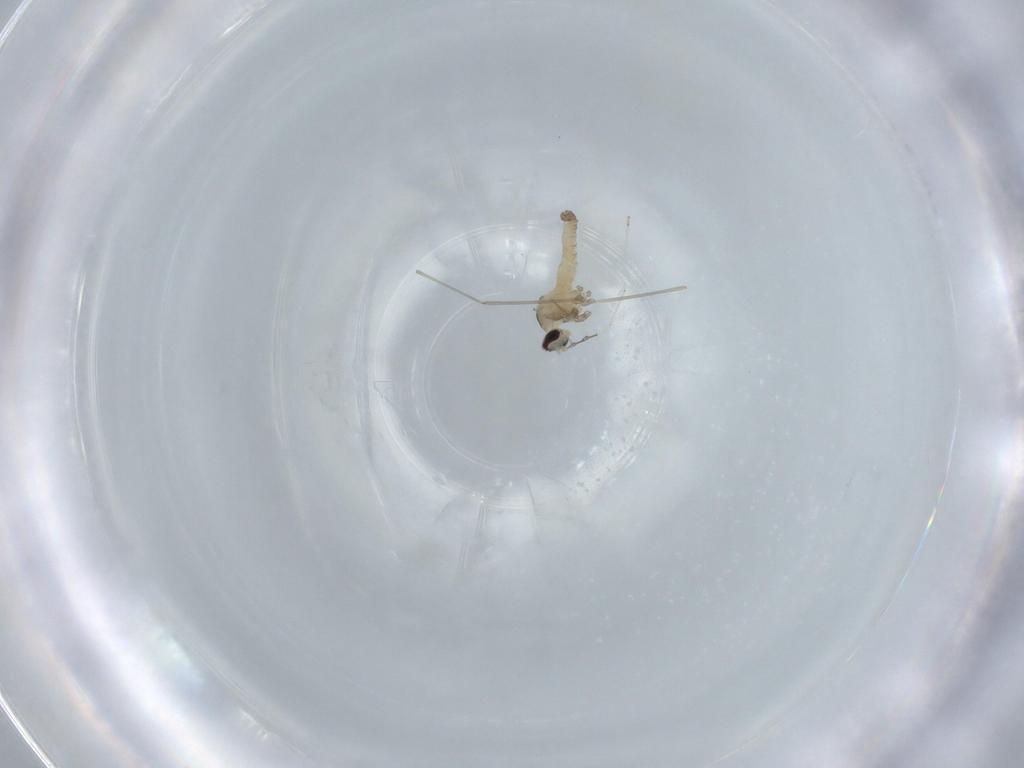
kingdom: Animalia
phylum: Arthropoda
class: Insecta
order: Diptera
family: Cecidomyiidae
